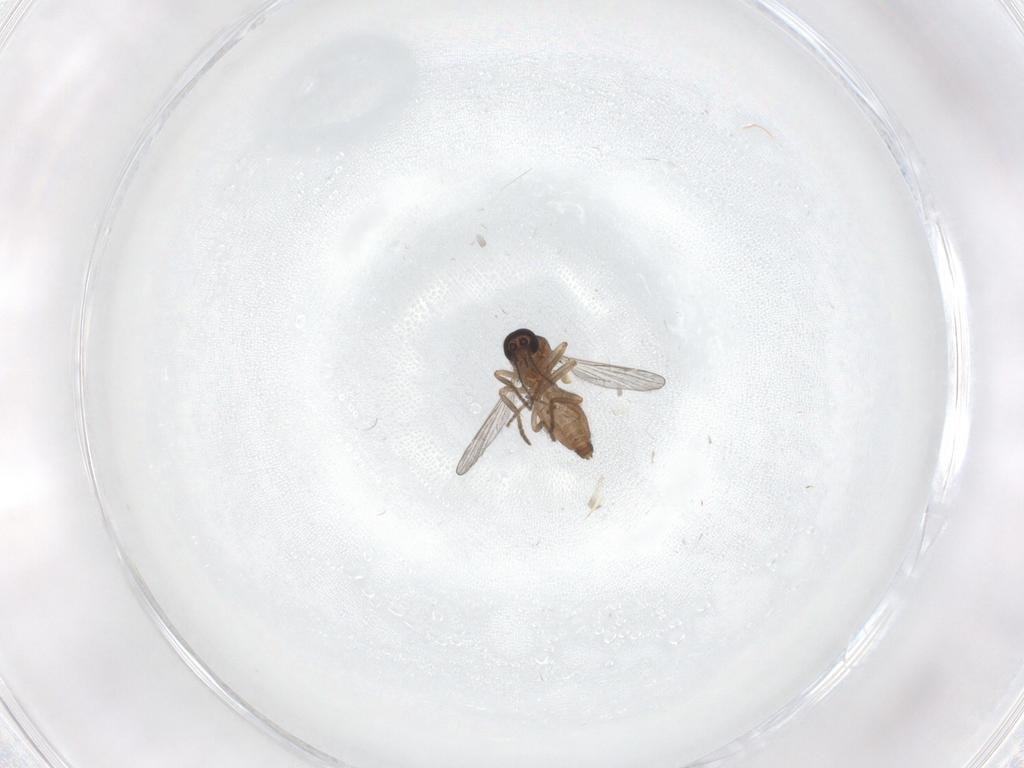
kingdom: Animalia
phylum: Arthropoda
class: Insecta
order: Diptera
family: Ceratopogonidae
